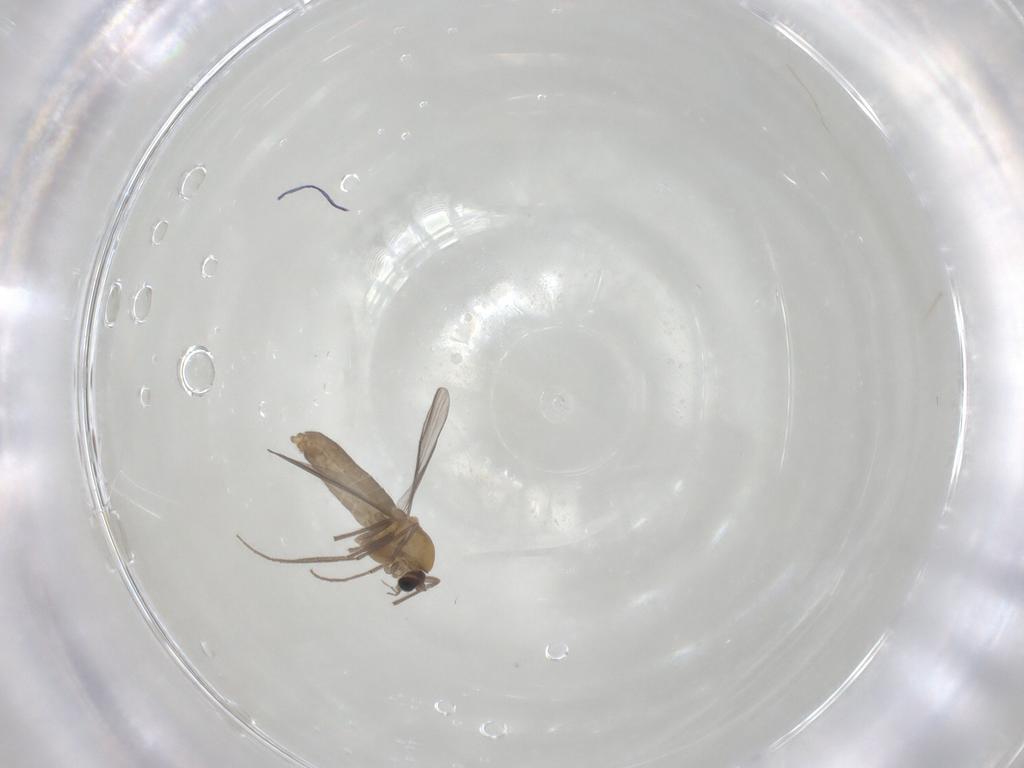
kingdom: Animalia
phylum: Arthropoda
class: Insecta
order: Diptera
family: Chironomidae
